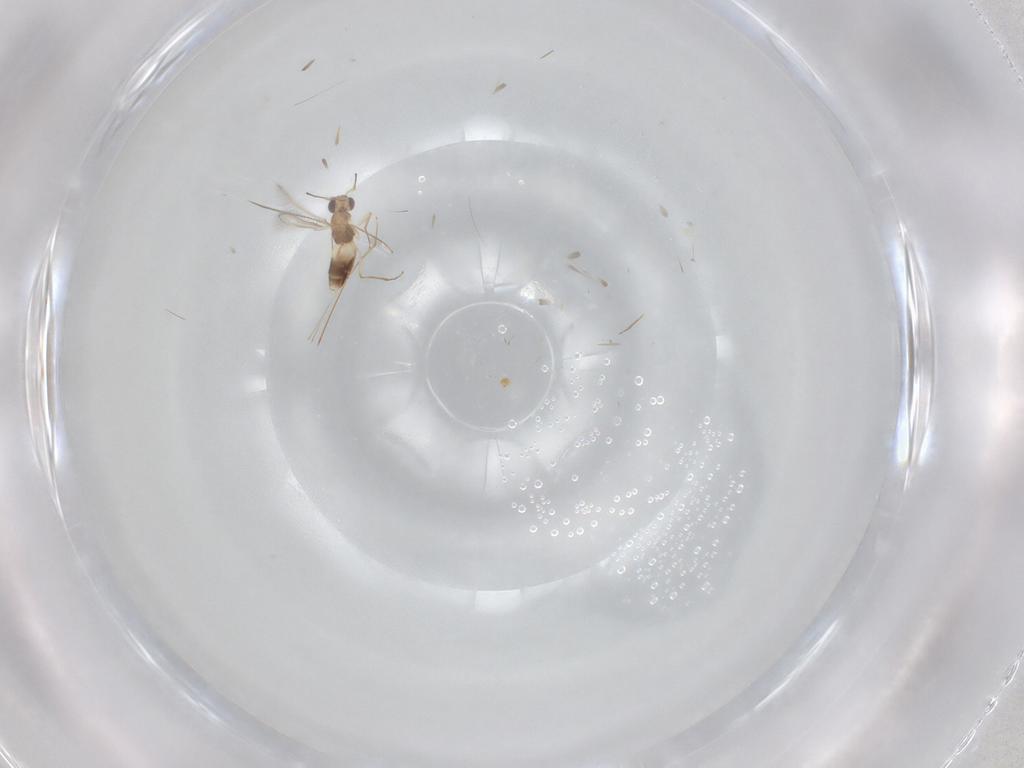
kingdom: Animalia
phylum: Arthropoda
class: Insecta
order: Hymenoptera
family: Mymaridae
